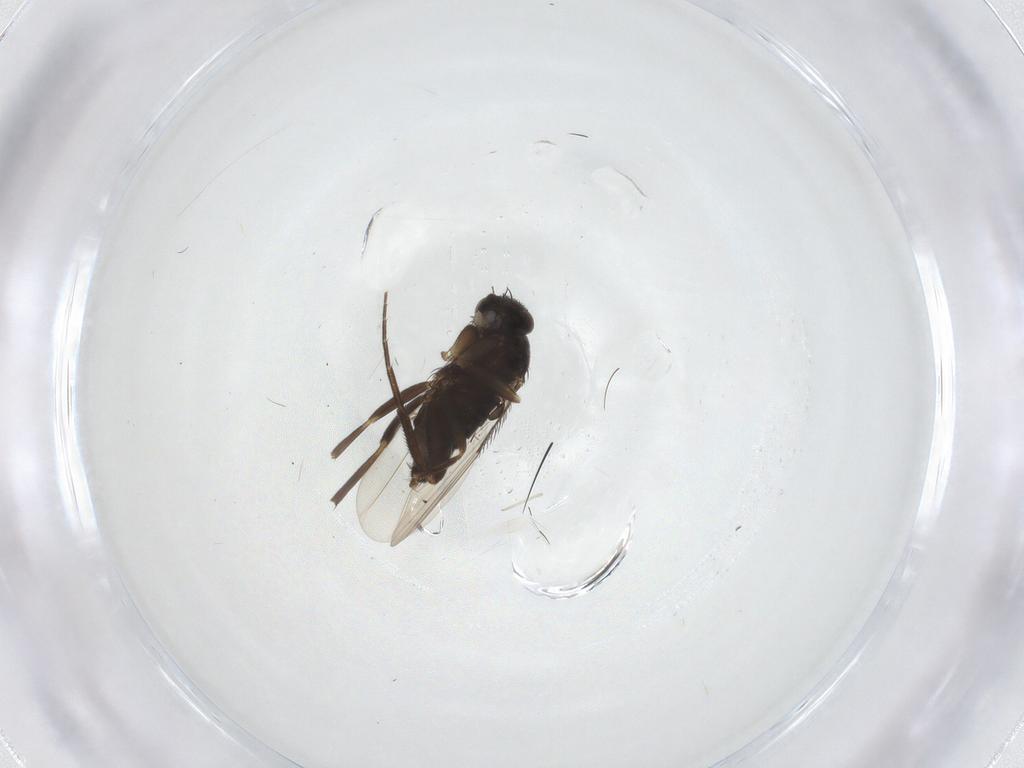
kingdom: Animalia
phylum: Arthropoda
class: Insecta
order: Diptera
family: Phoridae
